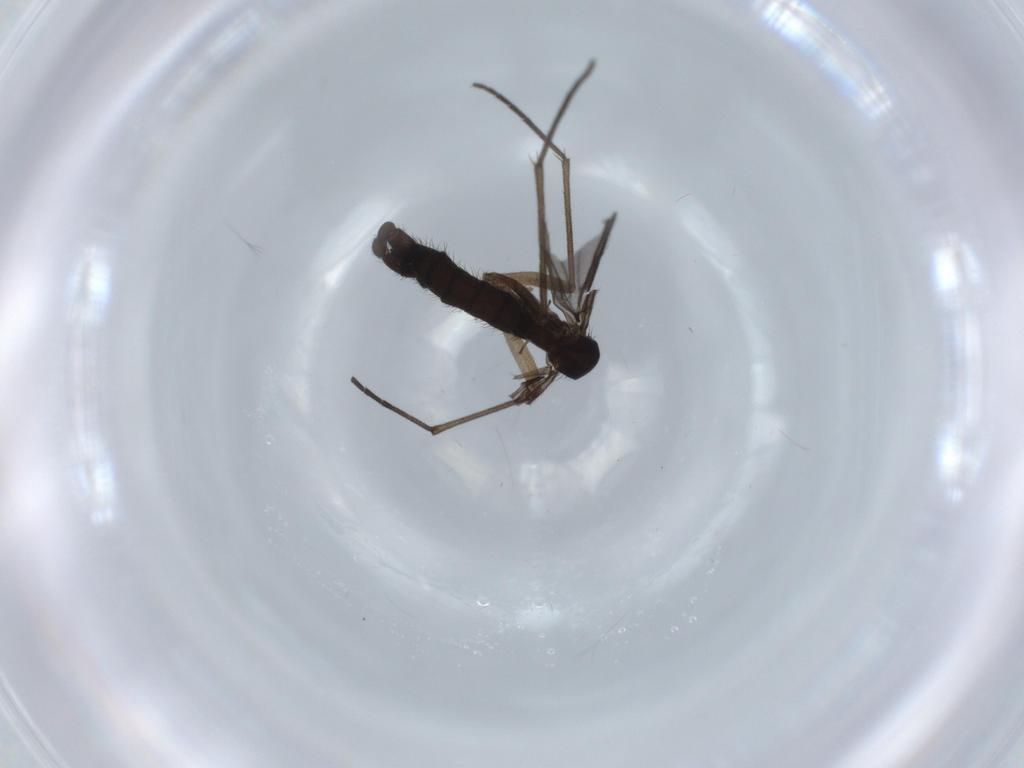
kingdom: Animalia
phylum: Arthropoda
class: Insecta
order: Diptera
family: Sciaridae
